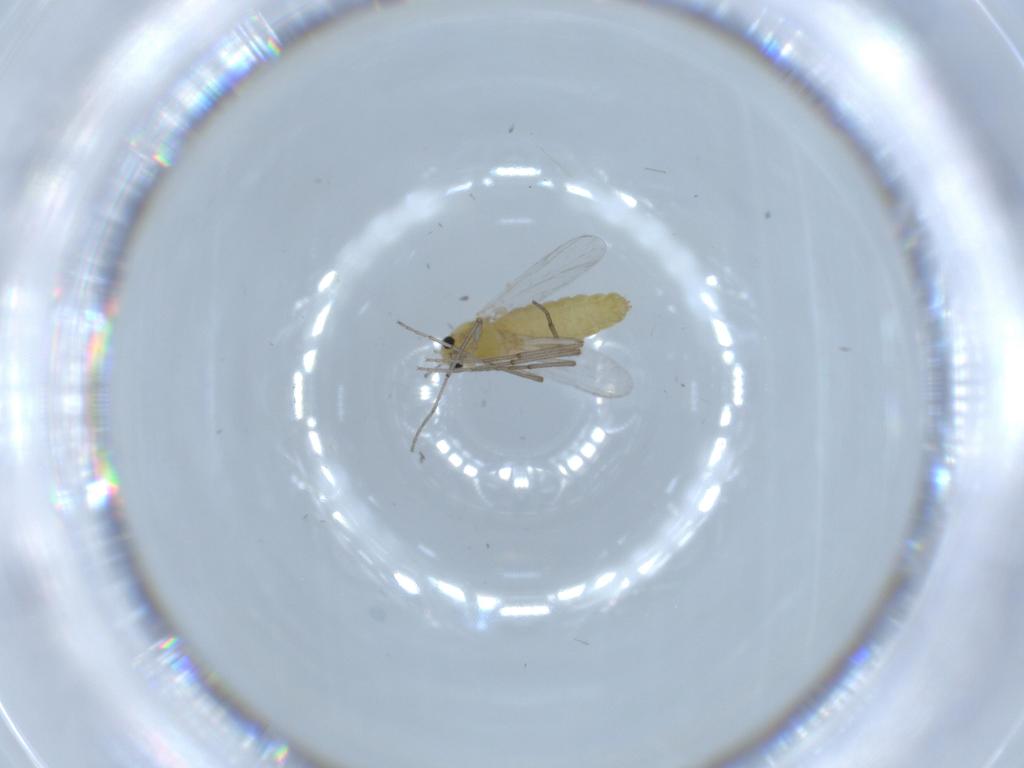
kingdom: Animalia
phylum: Arthropoda
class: Insecta
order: Diptera
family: Chironomidae
